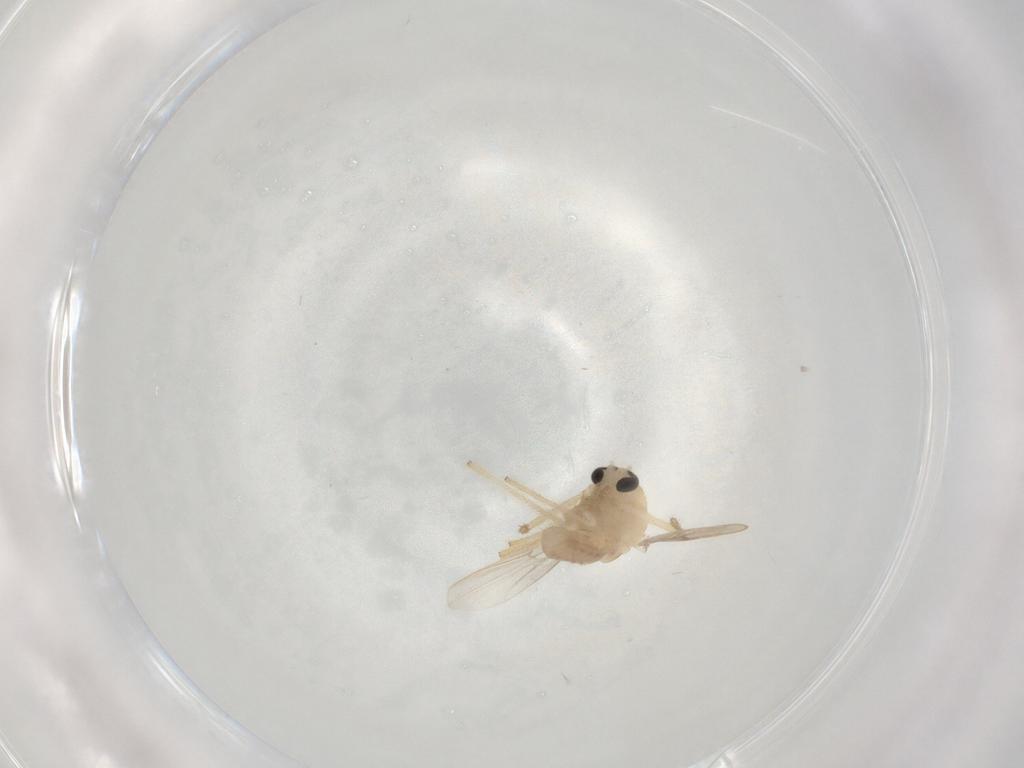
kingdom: Animalia
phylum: Arthropoda
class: Insecta
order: Diptera
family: Chironomidae
